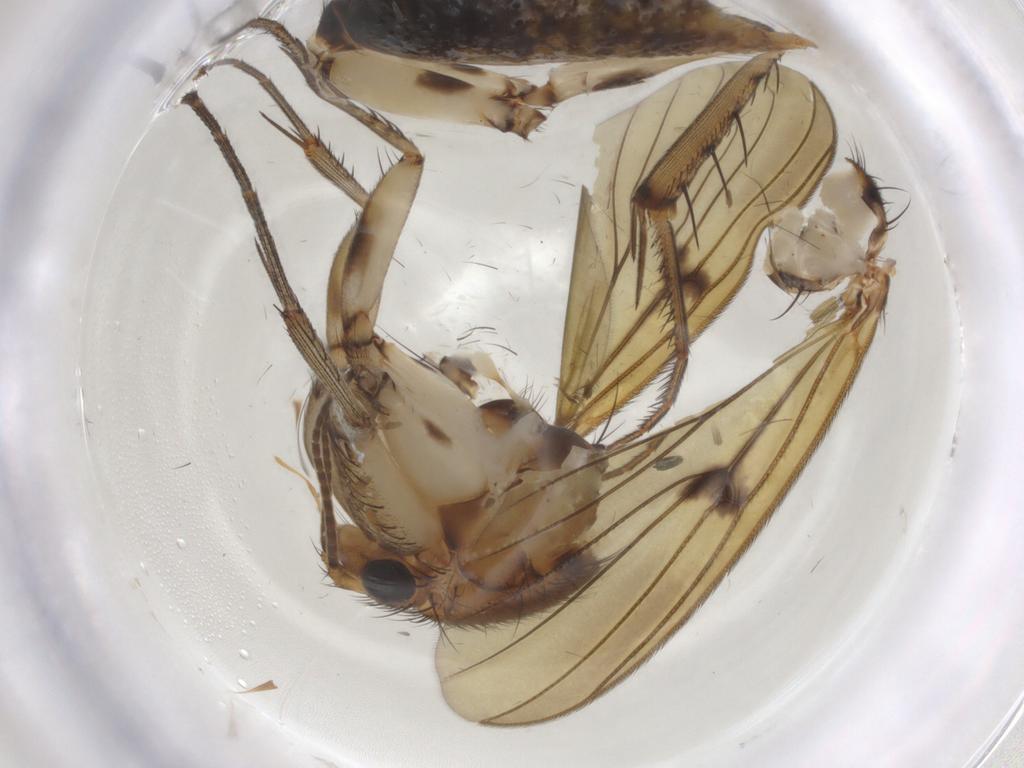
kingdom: Animalia
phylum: Arthropoda
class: Insecta
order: Diptera
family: Mycetophilidae
